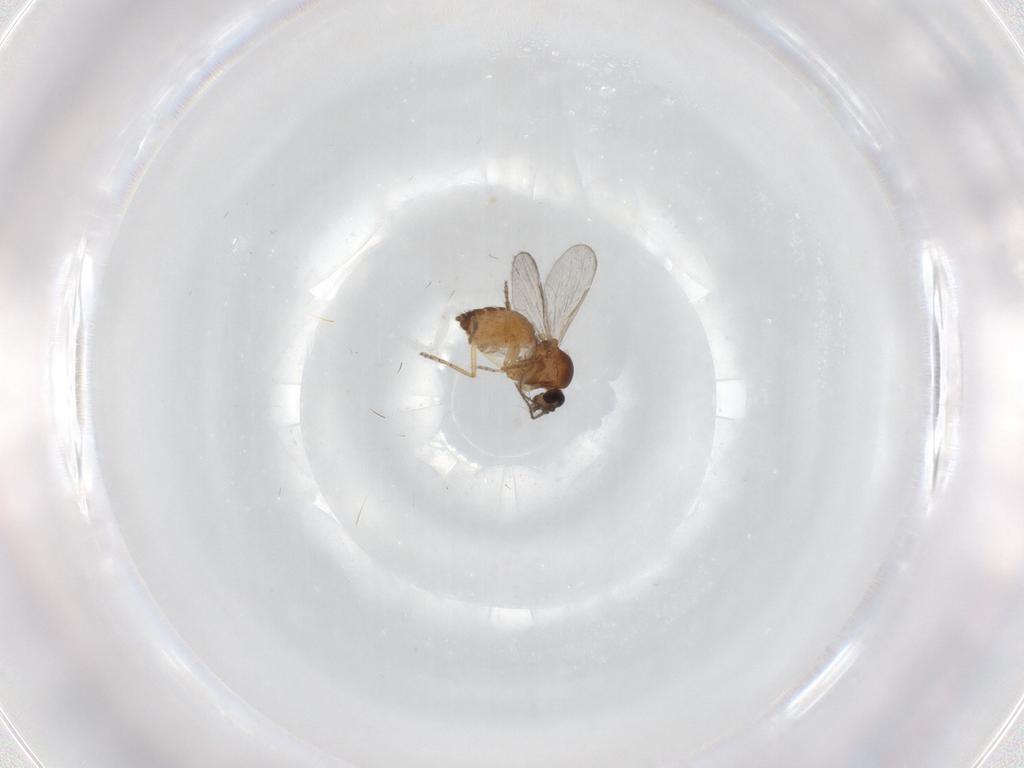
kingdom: Animalia
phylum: Arthropoda
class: Insecta
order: Diptera
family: Ceratopogonidae
